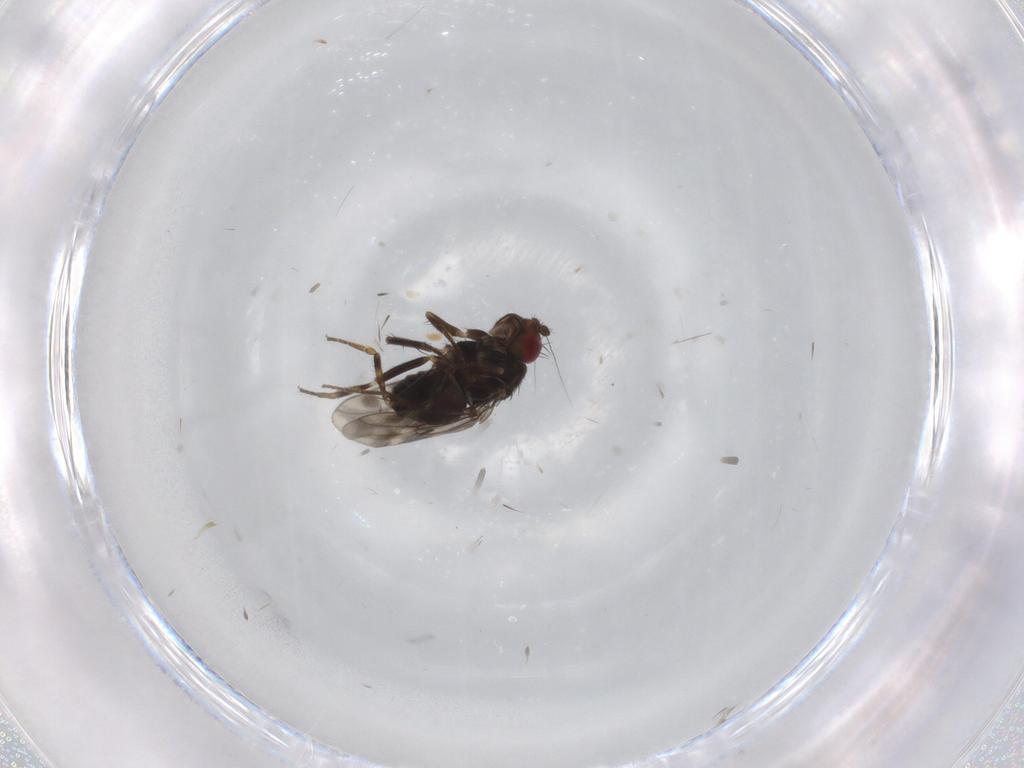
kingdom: Animalia
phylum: Arthropoda
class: Insecta
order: Diptera
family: Sphaeroceridae
